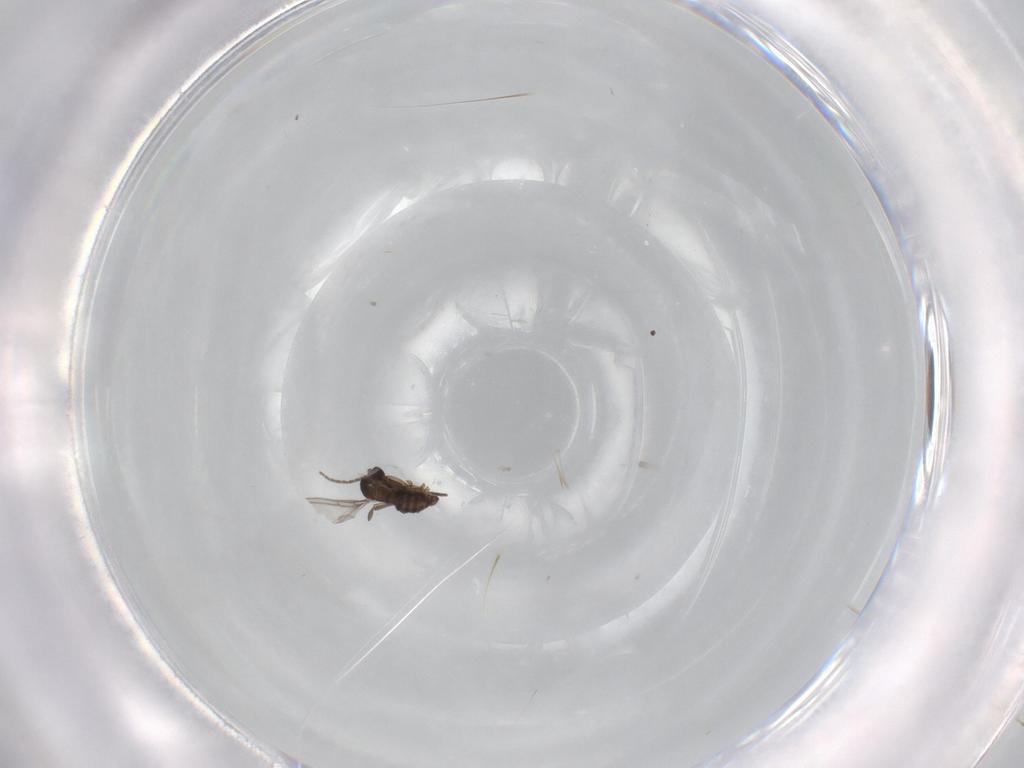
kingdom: Animalia
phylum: Arthropoda
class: Insecta
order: Diptera
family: Sciaridae
